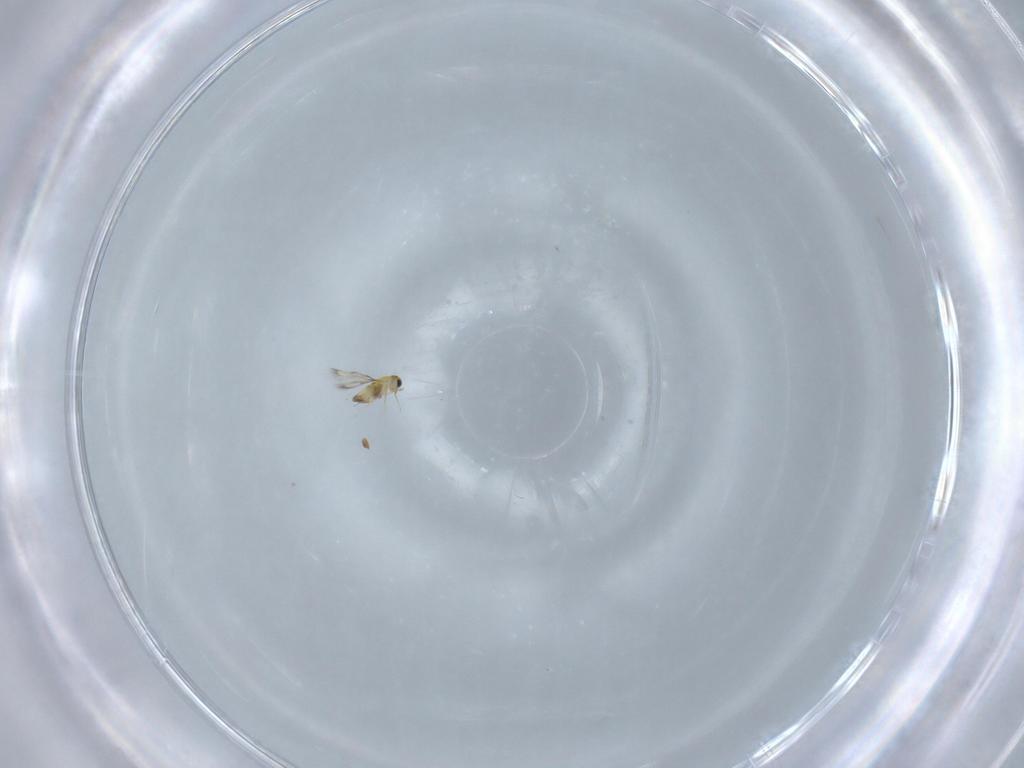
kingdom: Animalia
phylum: Arthropoda
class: Insecta
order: Hymenoptera
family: Trichogrammatidae
